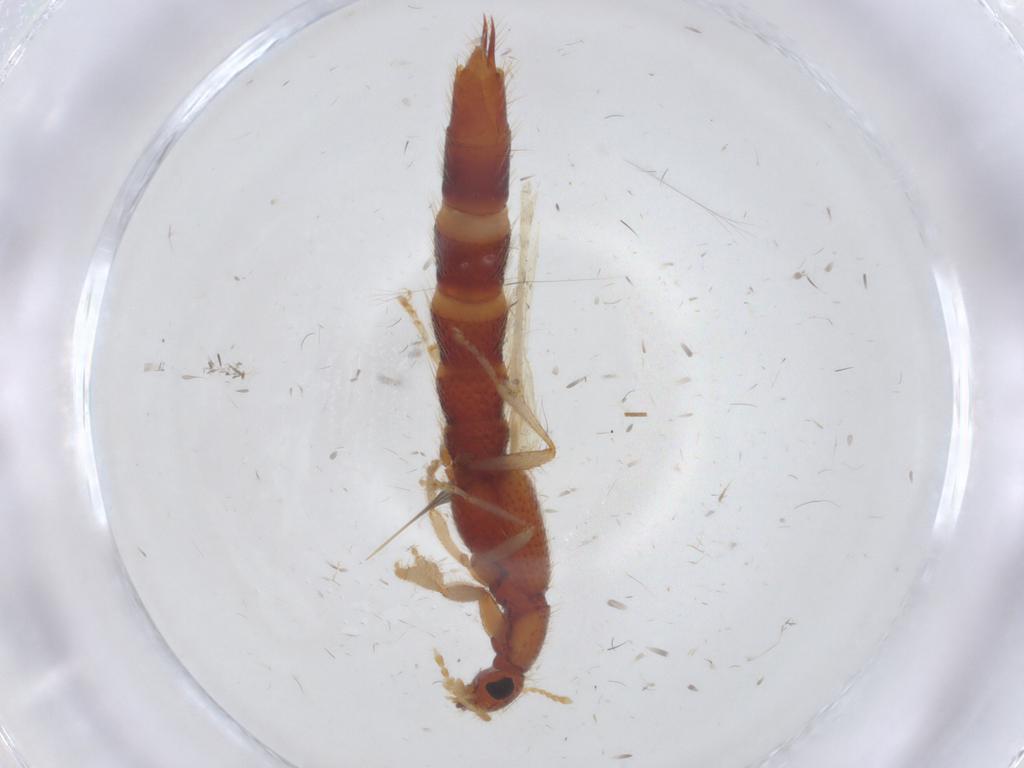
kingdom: Animalia
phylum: Arthropoda
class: Insecta
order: Coleoptera
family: Staphylinidae
